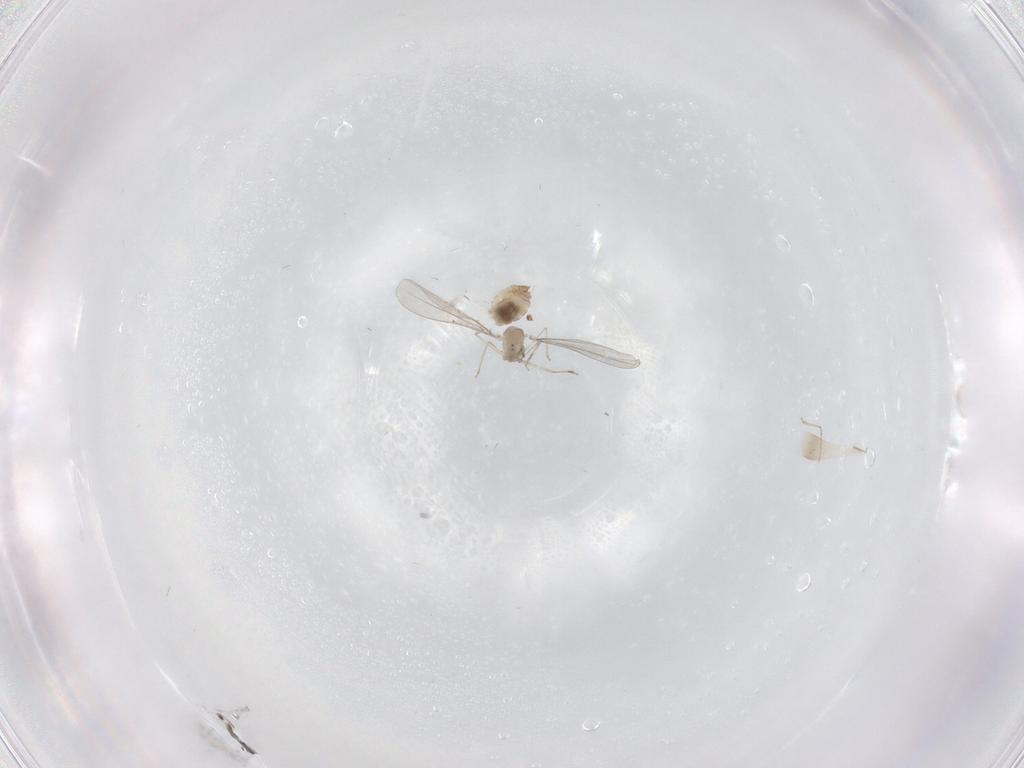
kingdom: Animalia
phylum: Arthropoda
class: Insecta
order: Diptera
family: Cecidomyiidae
